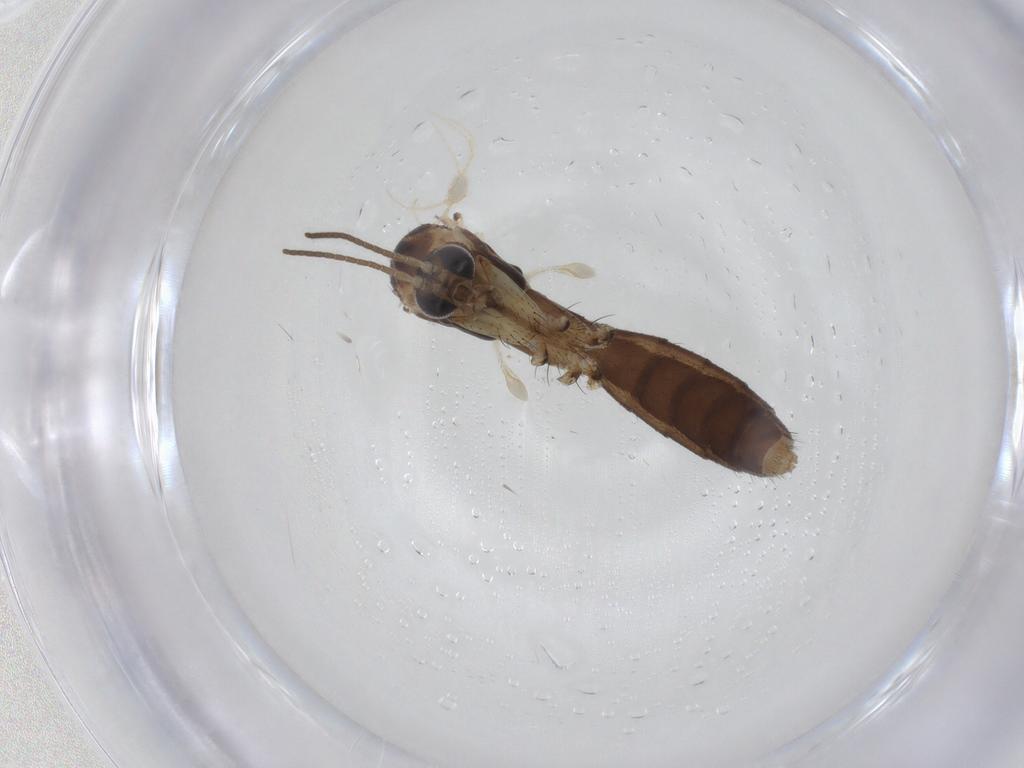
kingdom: Animalia
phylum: Arthropoda
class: Insecta
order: Diptera
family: Mycetophilidae
